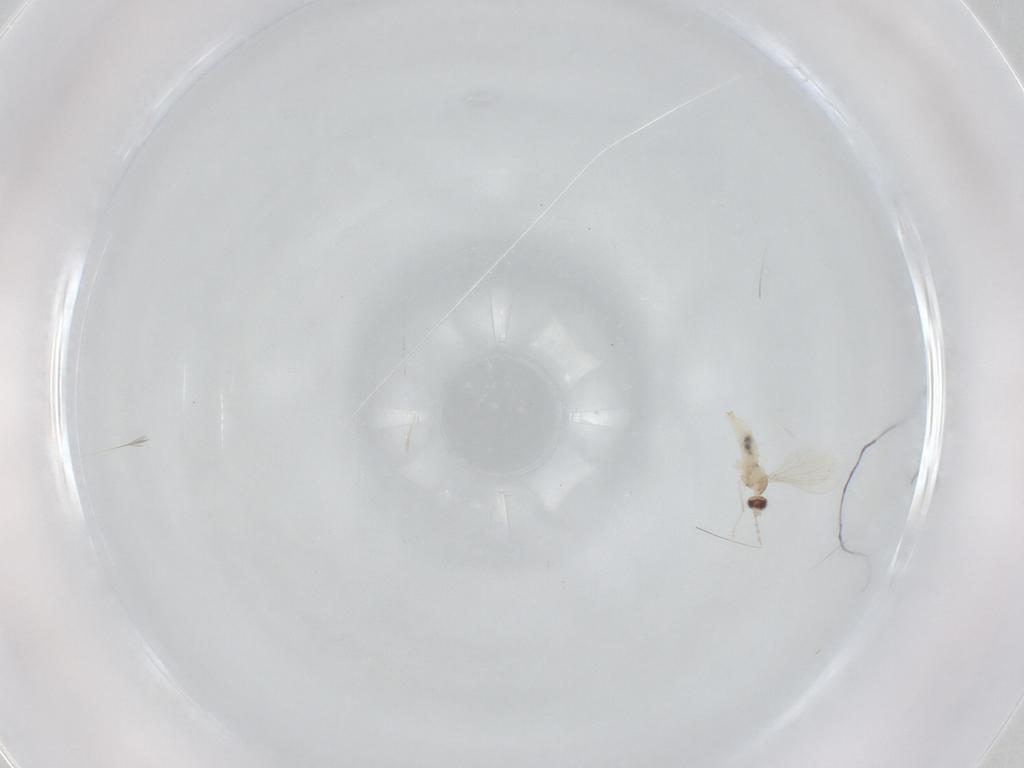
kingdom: Animalia
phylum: Arthropoda
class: Insecta
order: Diptera
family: Cecidomyiidae
